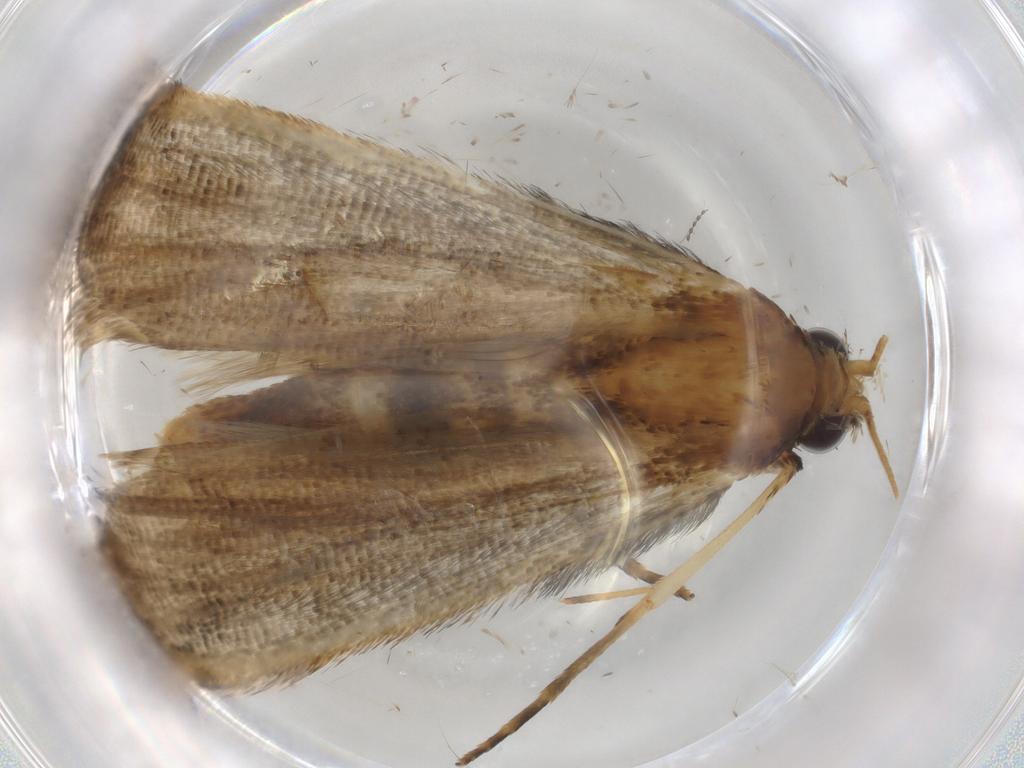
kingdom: Animalia
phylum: Arthropoda
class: Insecta
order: Lepidoptera
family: Erebidae
